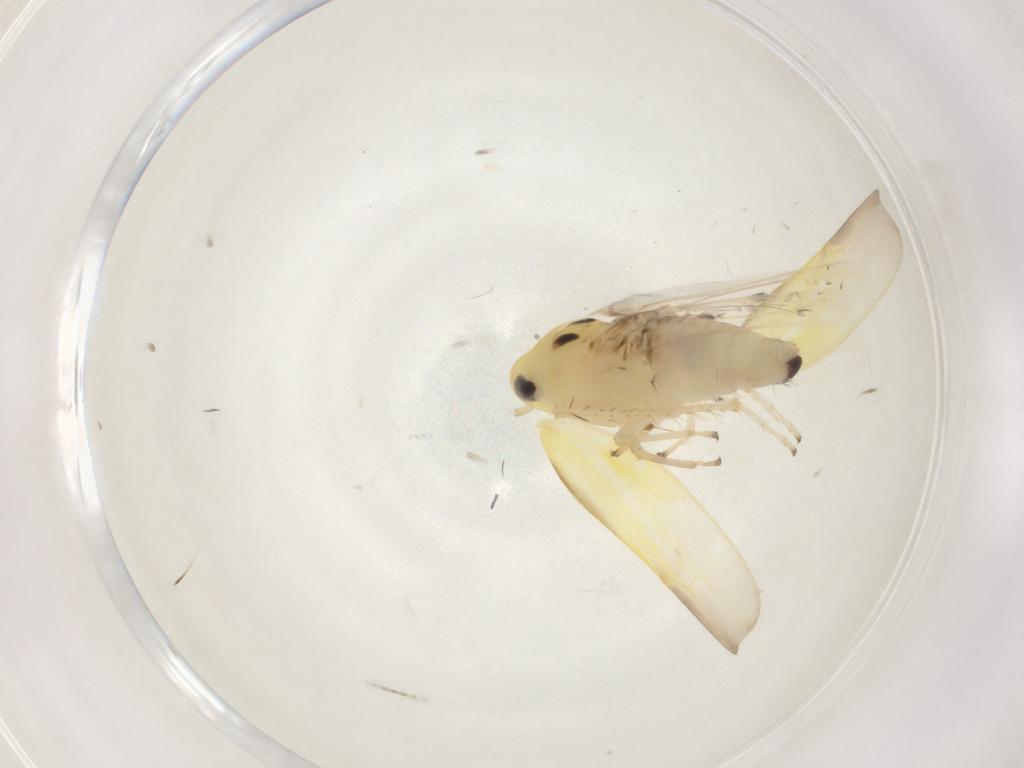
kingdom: Animalia
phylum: Arthropoda
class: Insecta
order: Hemiptera
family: Cicadellidae
